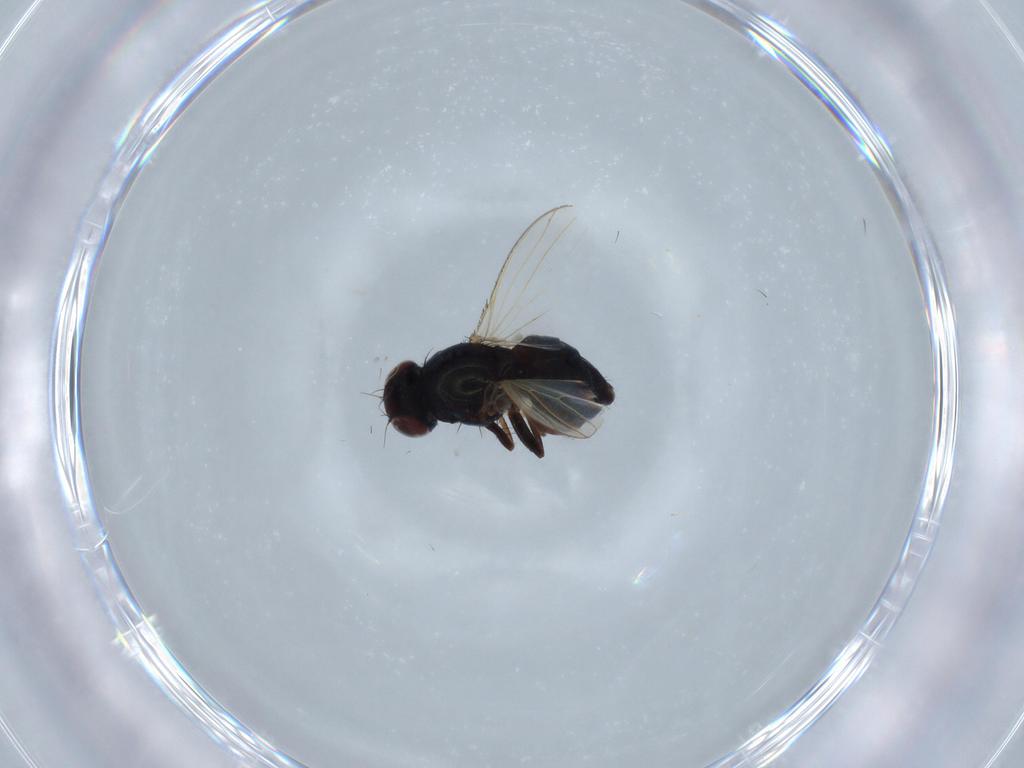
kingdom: Animalia
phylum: Arthropoda
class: Insecta
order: Diptera
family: Carnidae
